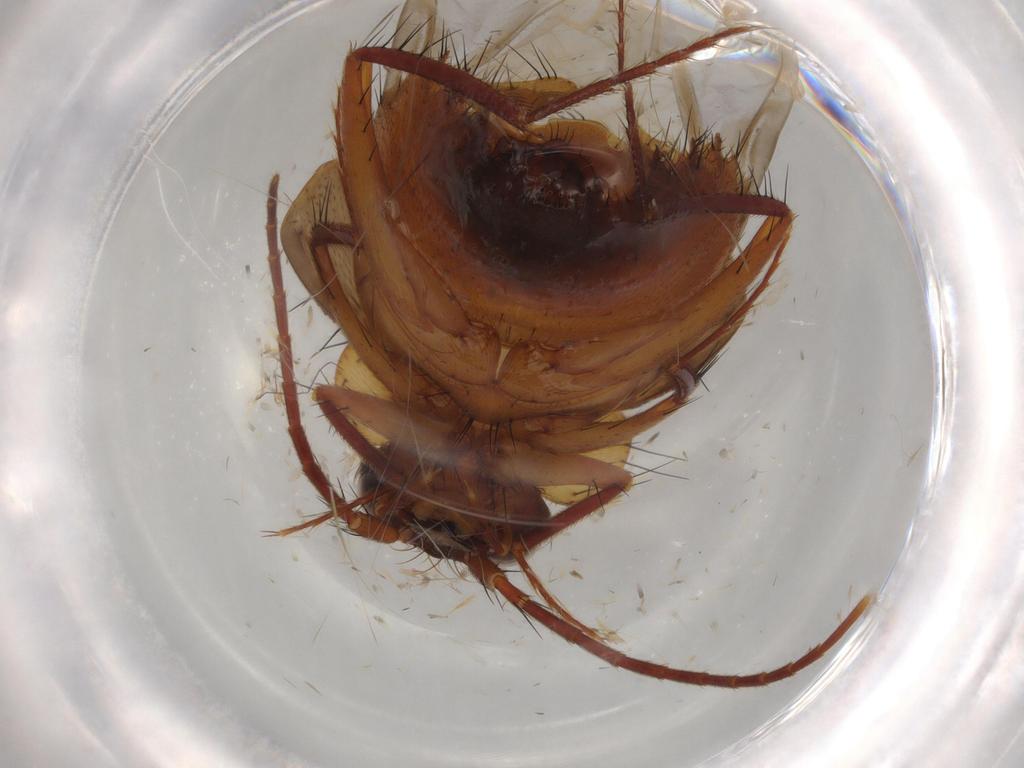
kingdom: Animalia
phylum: Arthropoda
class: Insecta
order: Coleoptera
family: Staphylinidae
